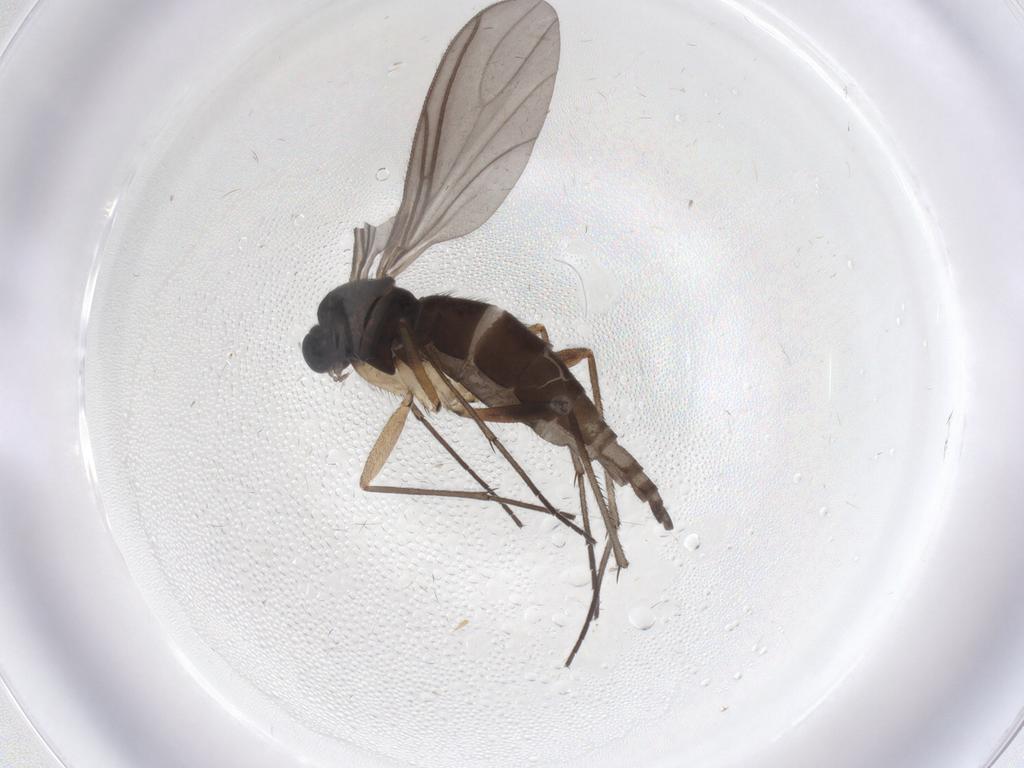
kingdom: Animalia
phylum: Arthropoda
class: Insecta
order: Diptera
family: Sciaridae
